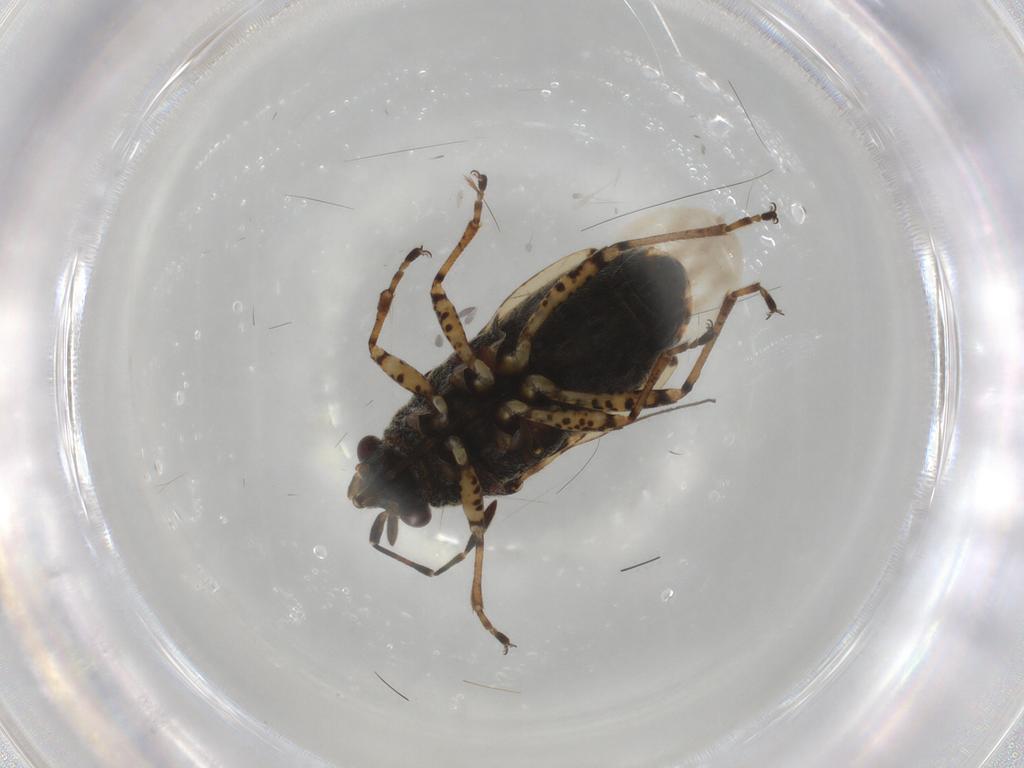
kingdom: Animalia
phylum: Arthropoda
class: Insecta
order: Hemiptera
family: Lygaeidae
